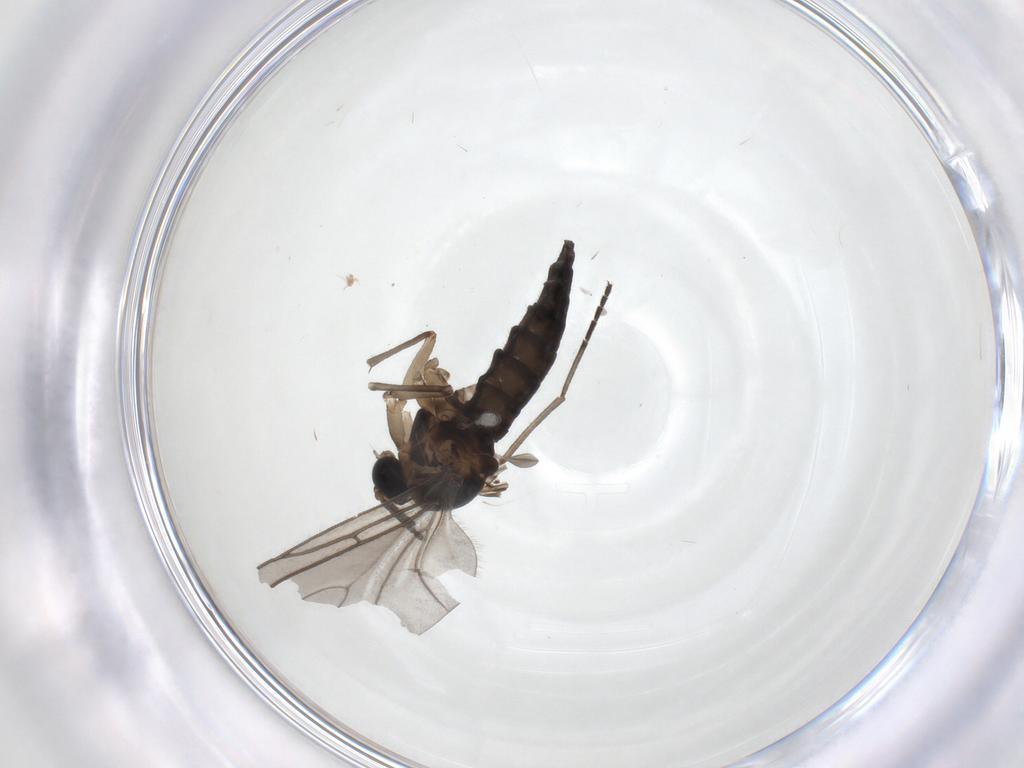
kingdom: Animalia
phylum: Arthropoda
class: Insecta
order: Diptera
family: Sciaridae
